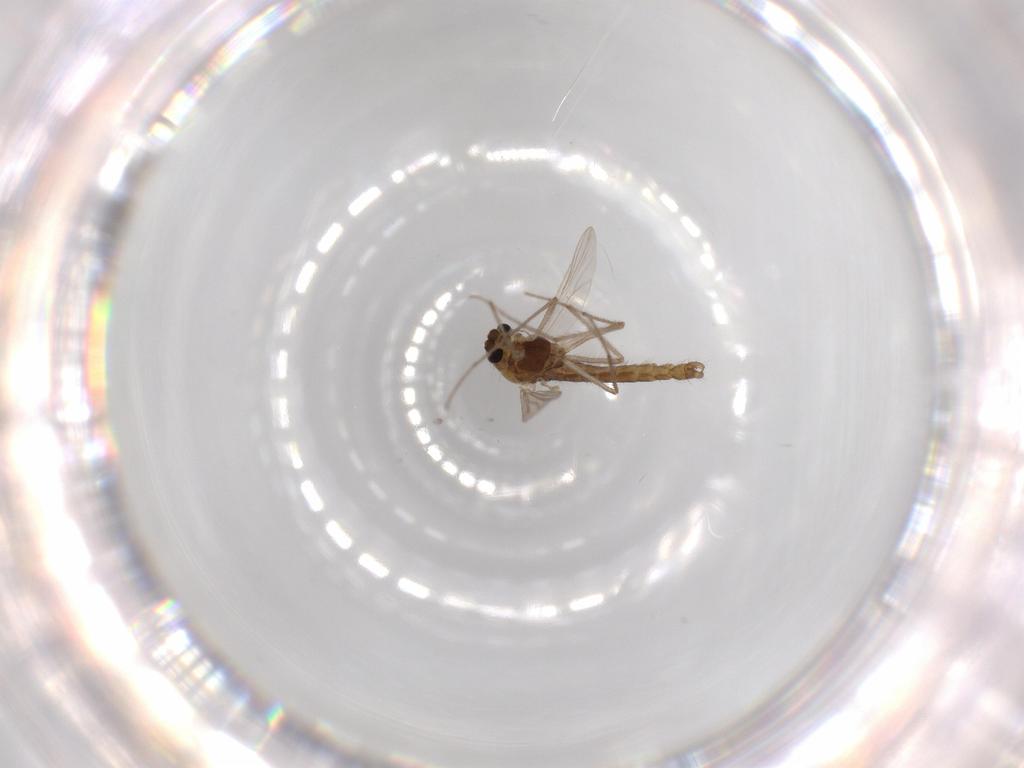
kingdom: Animalia
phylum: Arthropoda
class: Insecta
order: Diptera
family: Chironomidae
